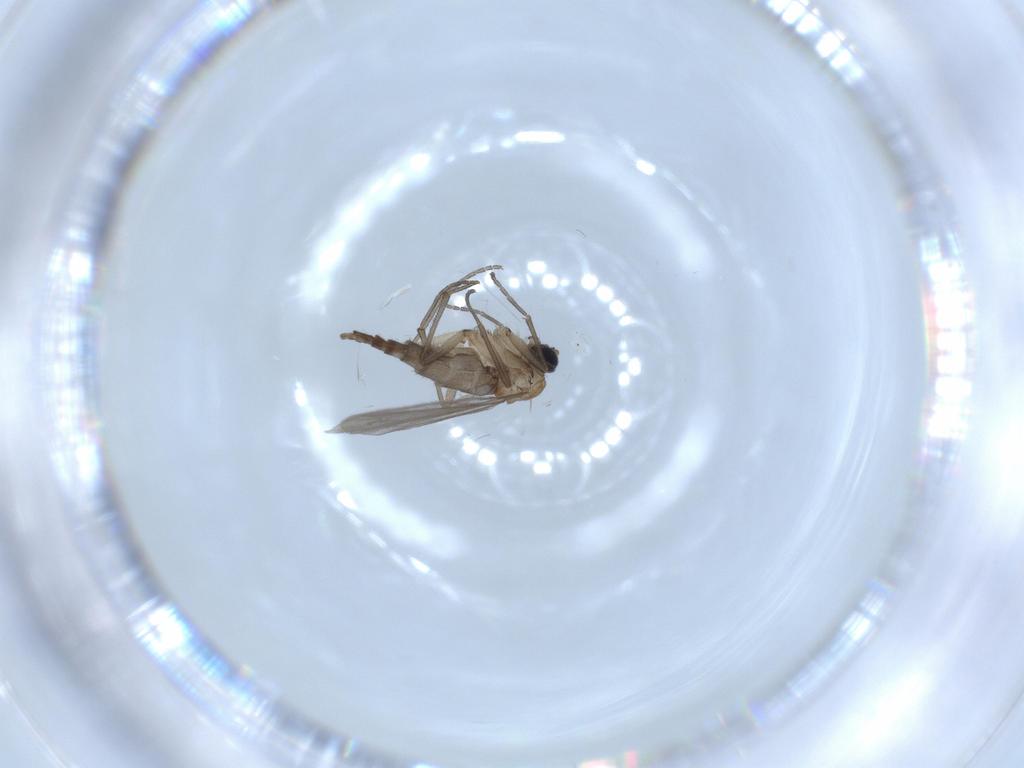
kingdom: Animalia
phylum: Arthropoda
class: Insecta
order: Diptera
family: Sciaridae
